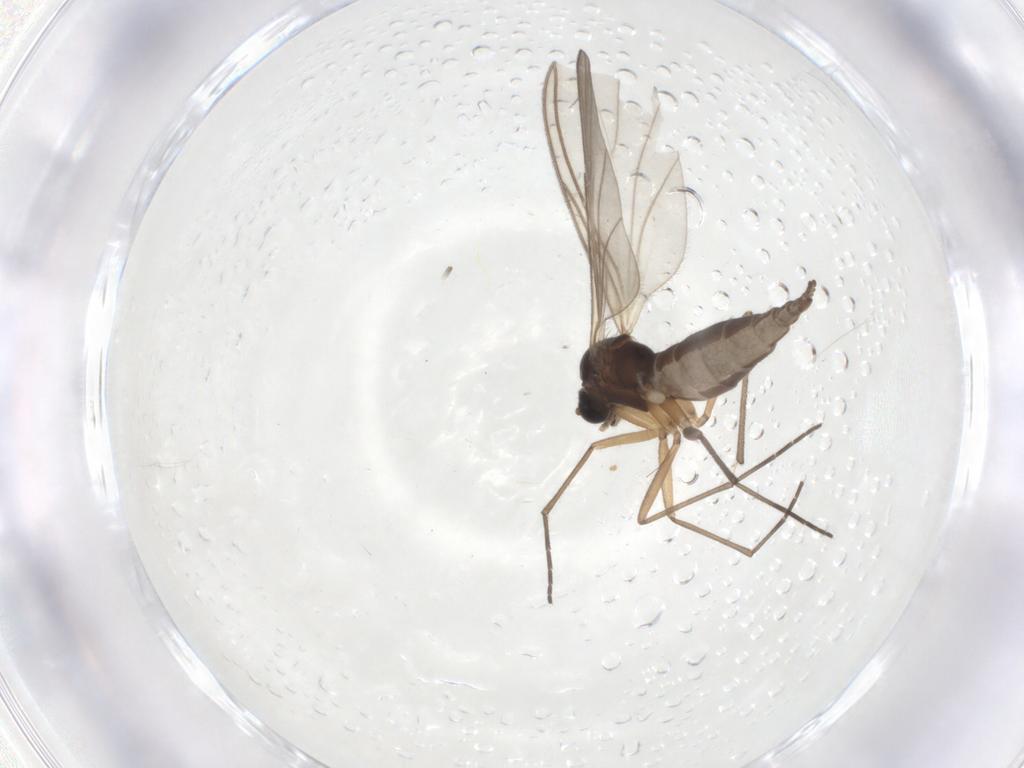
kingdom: Animalia
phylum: Arthropoda
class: Insecta
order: Diptera
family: Sciaridae
